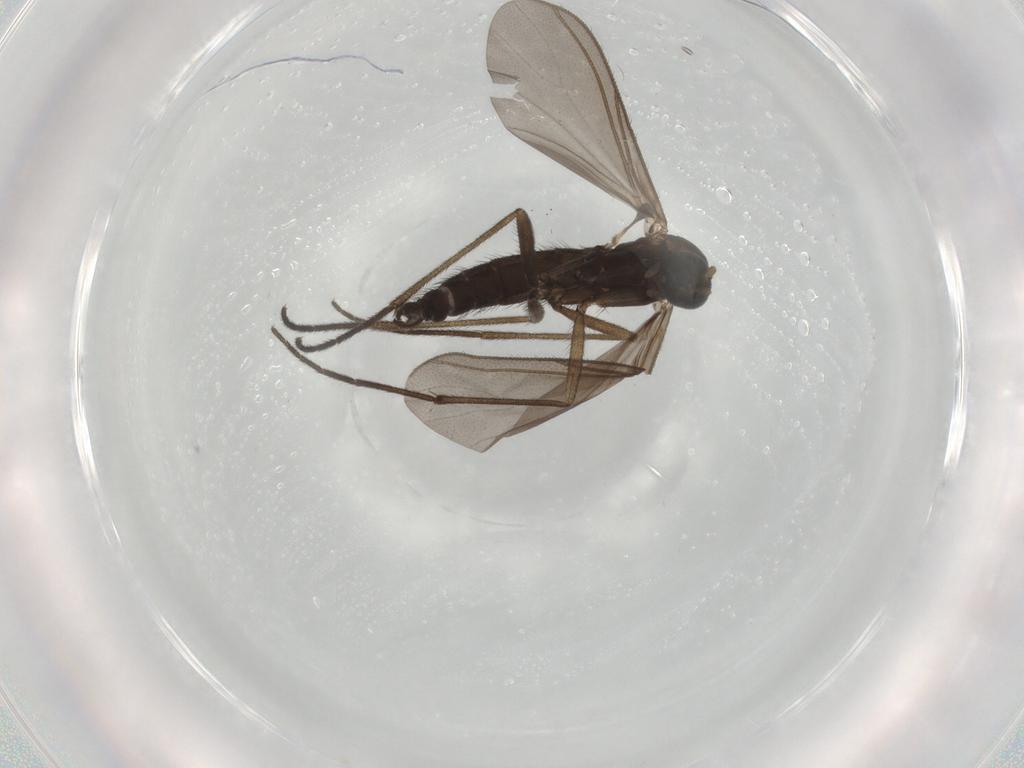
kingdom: Animalia
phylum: Arthropoda
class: Insecta
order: Diptera
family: Sciaridae
